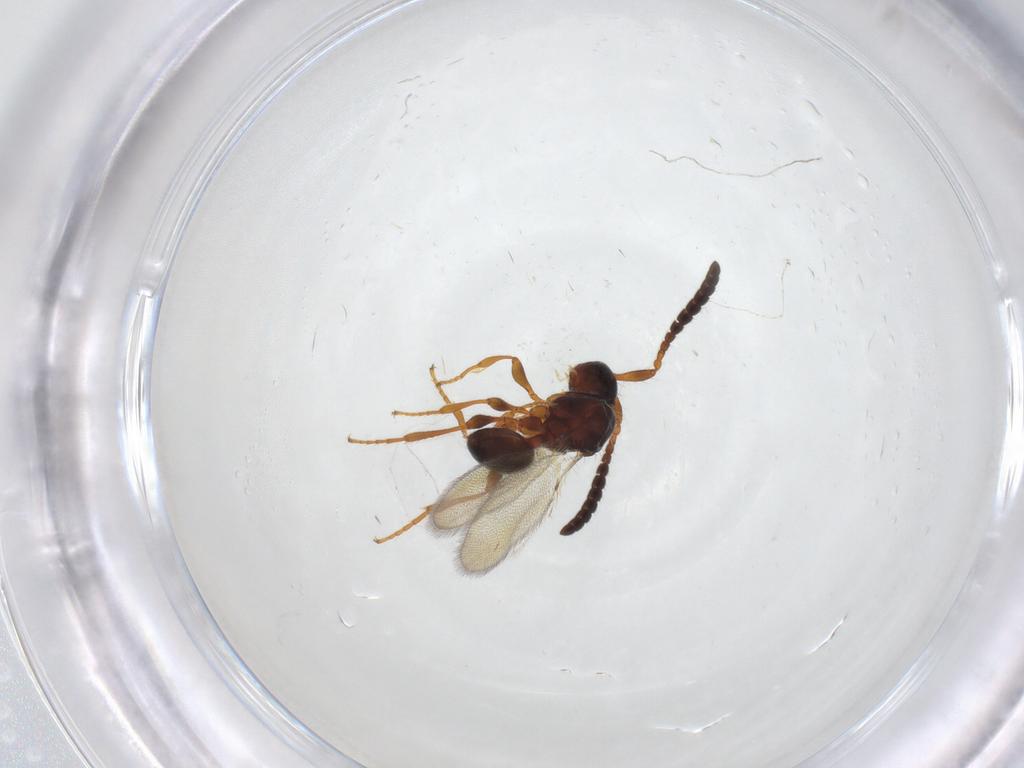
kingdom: Animalia
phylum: Arthropoda
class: Insecta
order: Hymenoptera
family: Diapriidae
